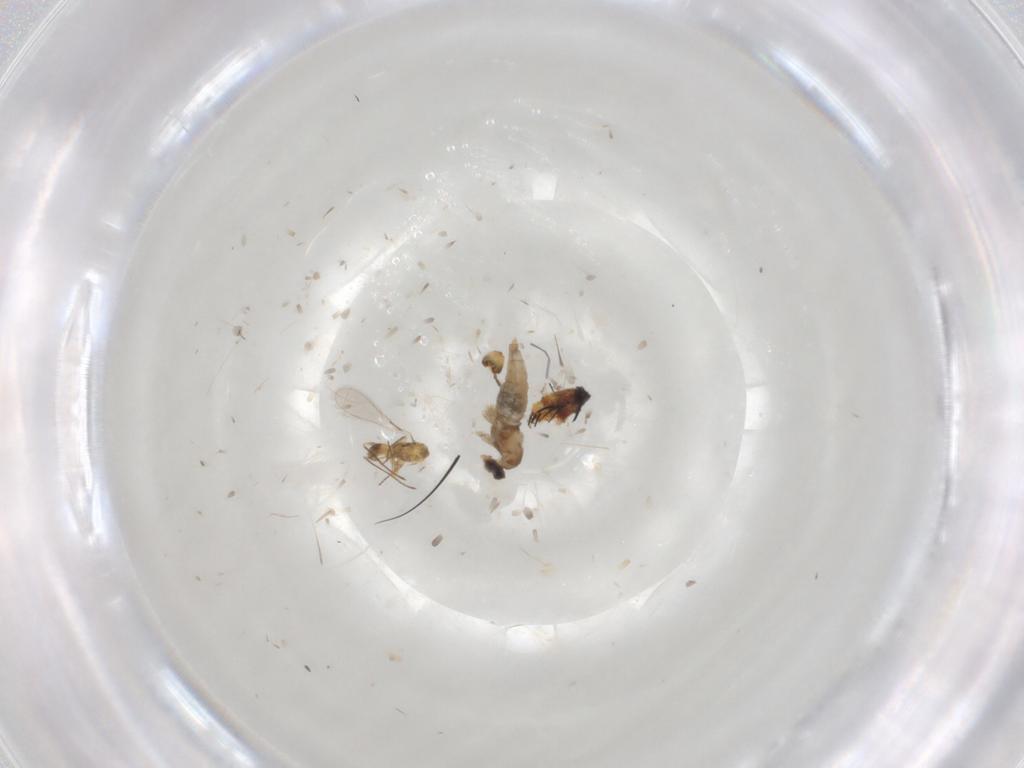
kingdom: Animalia
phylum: Arthropoda
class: Insecta
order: Diptera
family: Cecidomyiidae
